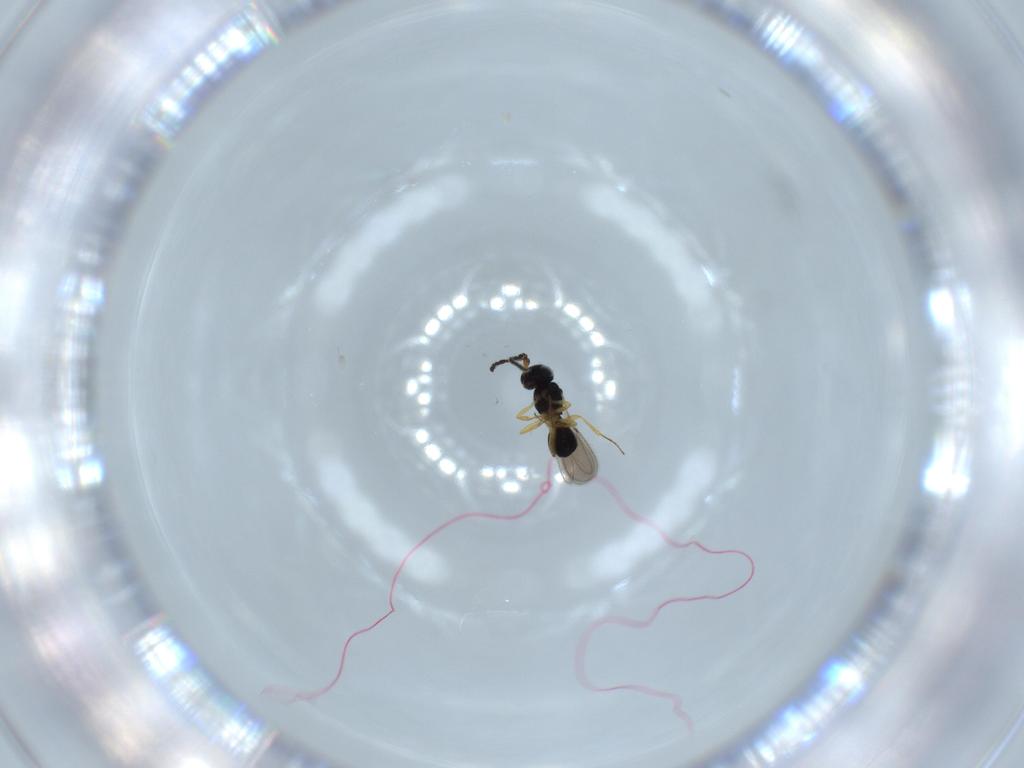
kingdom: Animalia
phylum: Arthropoda
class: Insecta
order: Hymenoptera
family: Scelionidae
